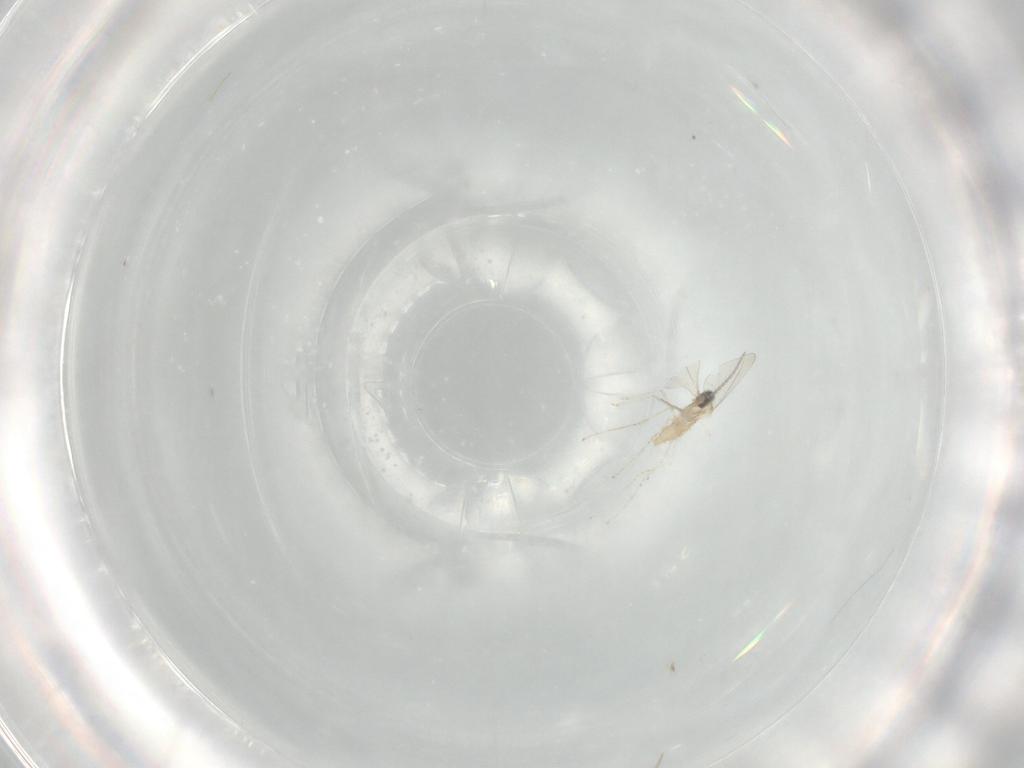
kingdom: Animalia
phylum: Arthropoda
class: Insecta
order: Diptera
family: Cecidomyiidae
